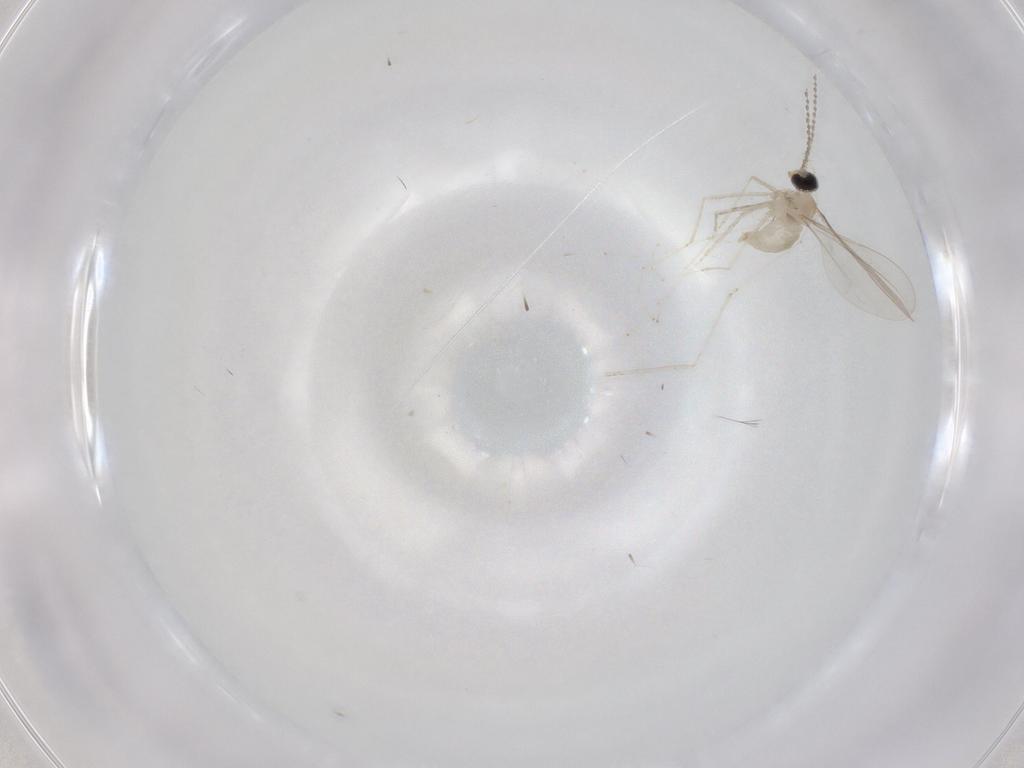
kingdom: Animalia
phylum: Arthropoda
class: Insecta
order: Diptera
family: Cecidomyiidae
